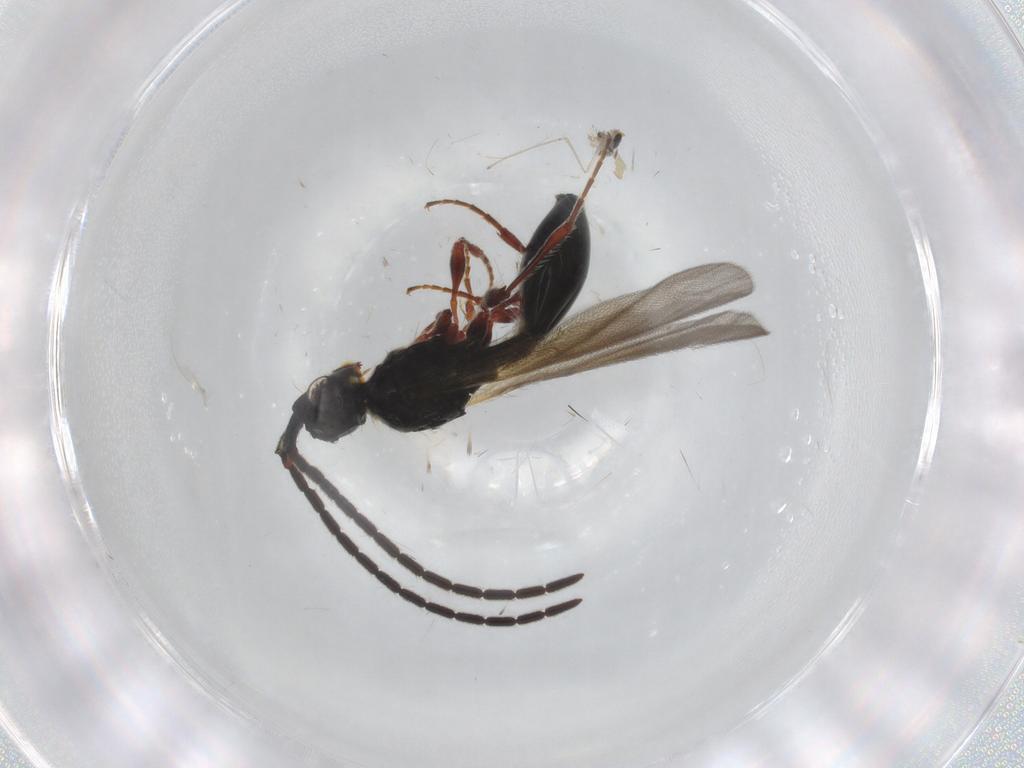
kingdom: Animalia
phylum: Arthropoda
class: Insecta
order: Hymenoptera
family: Diapriidae
